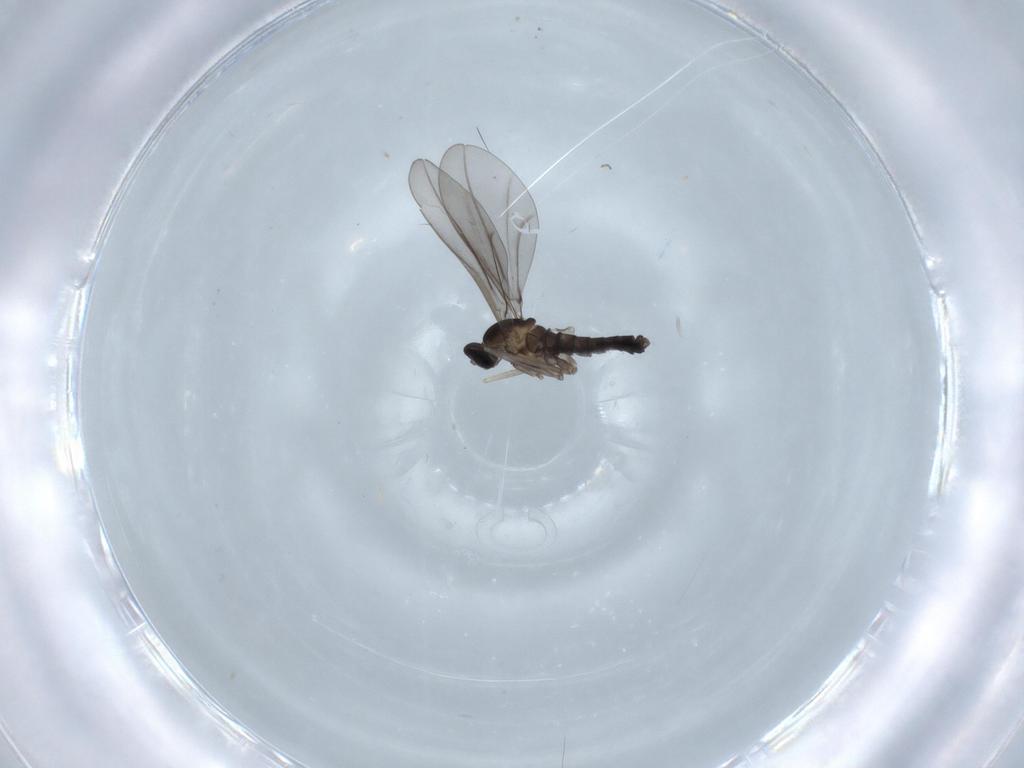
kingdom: Animalia
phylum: Arthropoda
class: Insecta
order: Diptera
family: Cecidomyiidae
